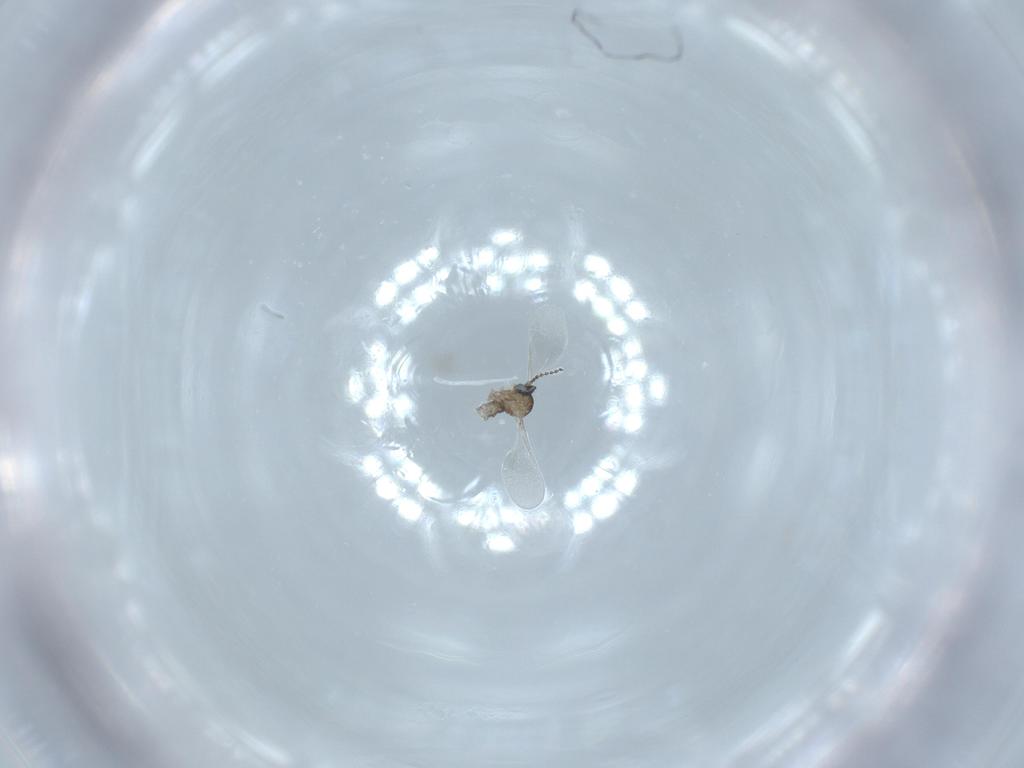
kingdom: Animalia
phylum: Arthropoda
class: Insecta
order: Diptera
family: Cecidomyiidae
